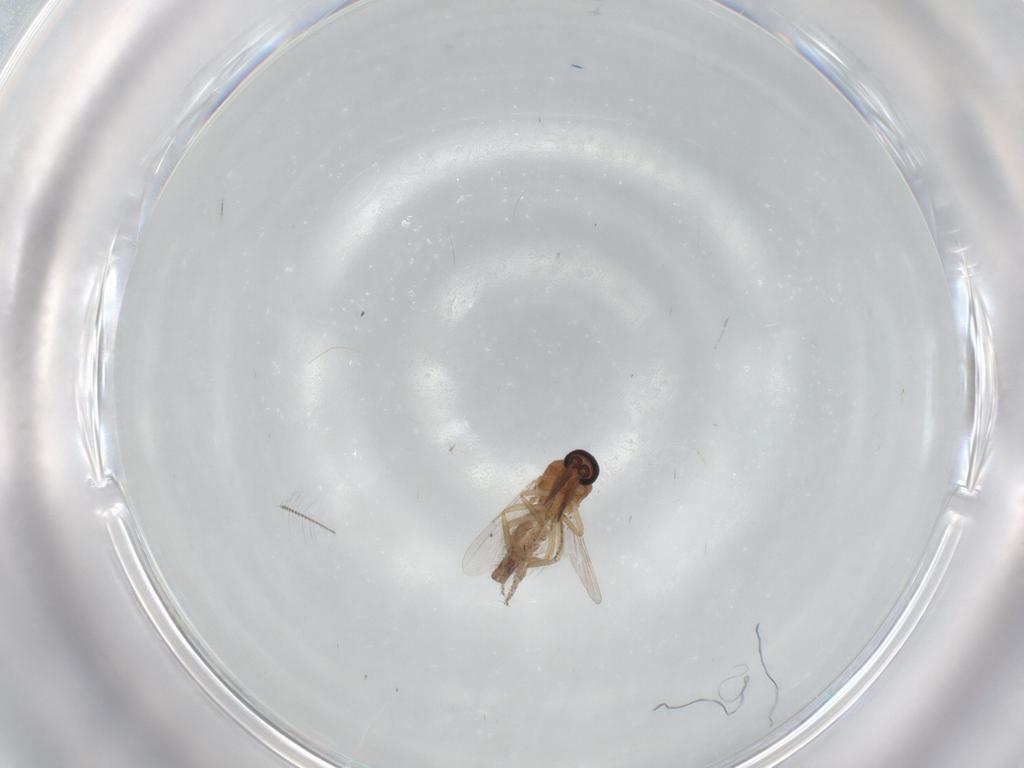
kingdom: Animalia
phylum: Arthropoda
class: Insecta
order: Diptera
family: Ceratopogonidae
